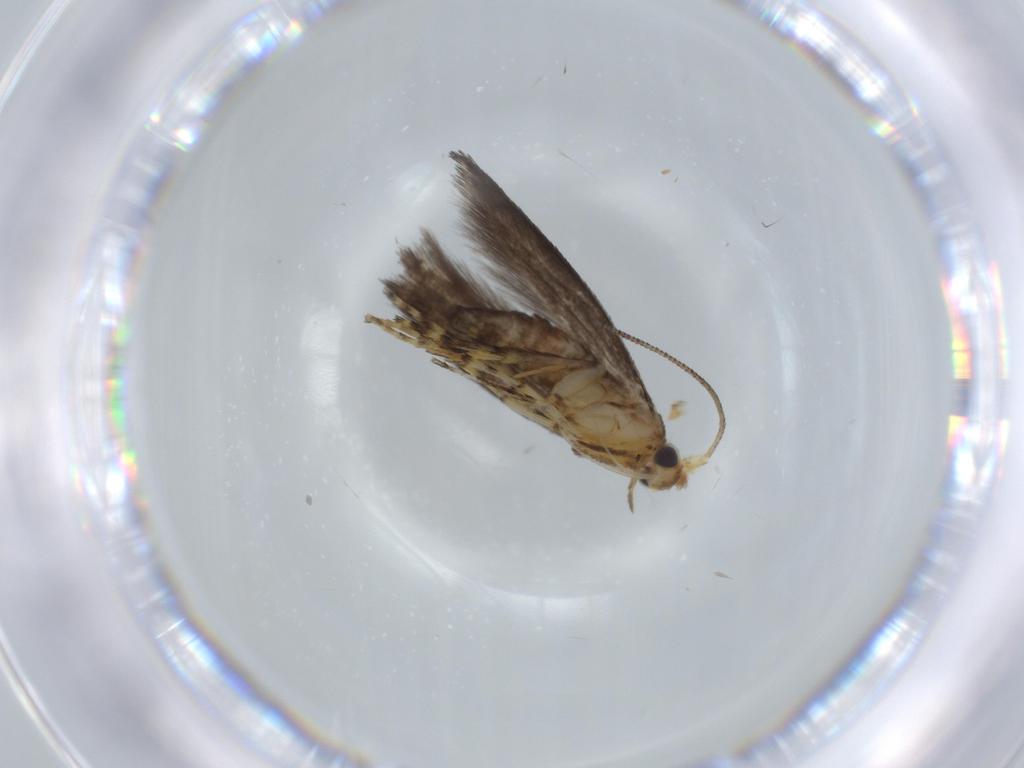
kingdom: Animalia
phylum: Arthropoda
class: Insecta
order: Lepidoptera
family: Argyresthiidae
